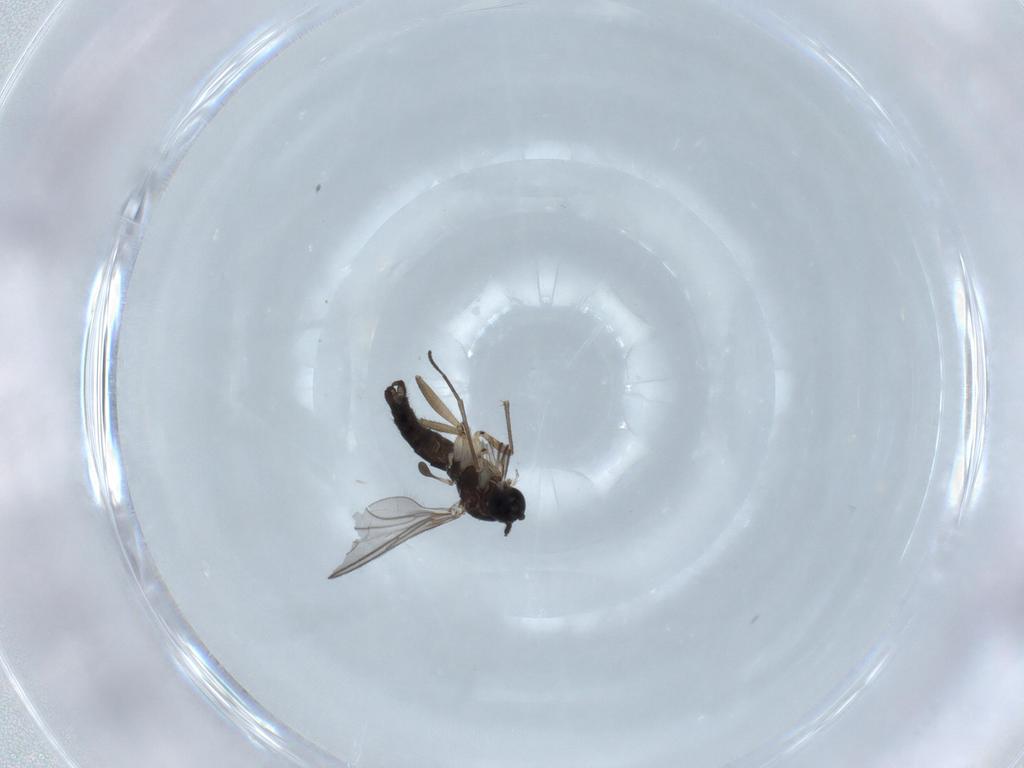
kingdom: Animalia
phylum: Arthropoda
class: Insecta
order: Diptera
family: Sciaridae
